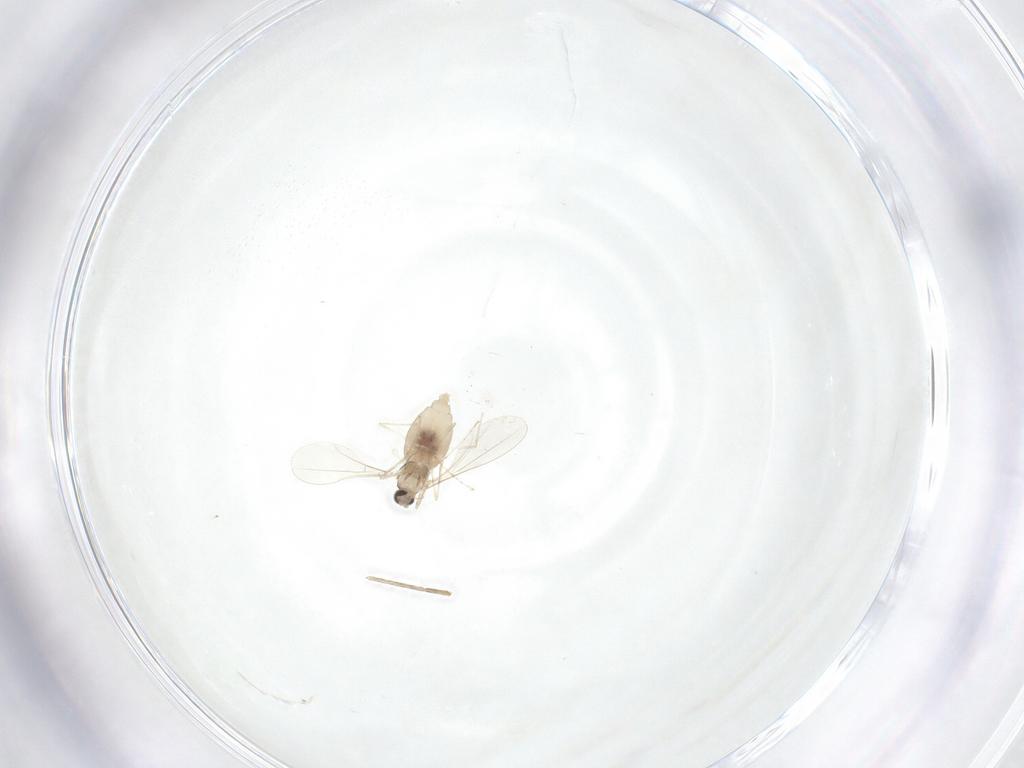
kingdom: Animalia
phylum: Arthropoda
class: Insecta
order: Diptera
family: Cecidomyiidae
